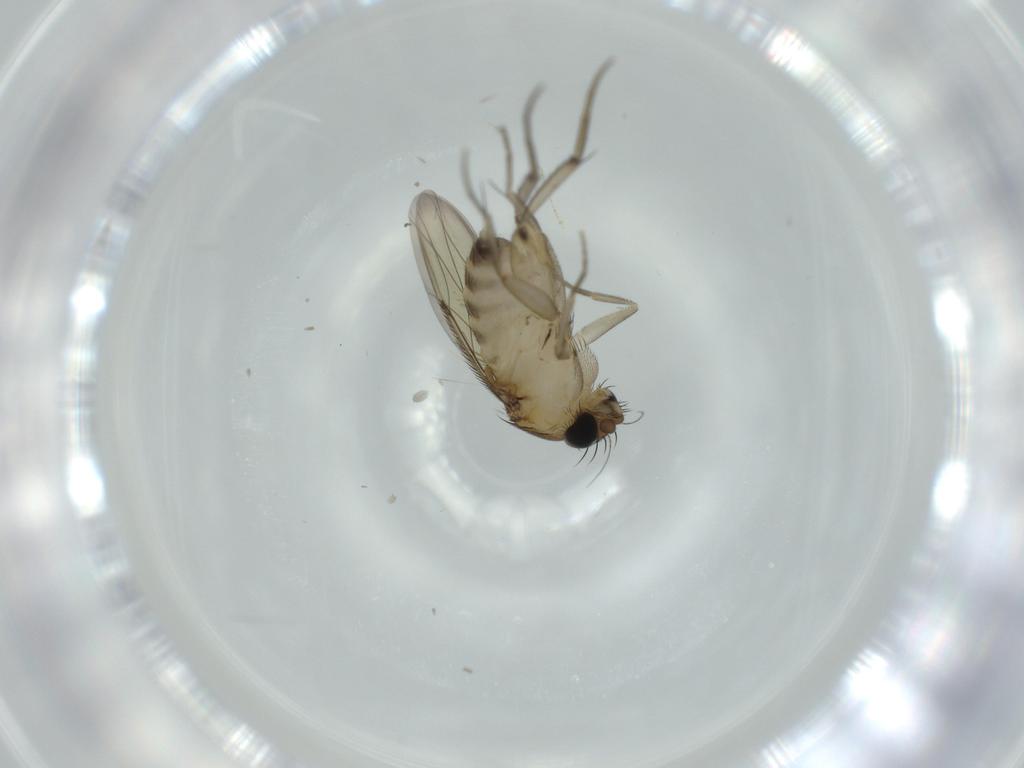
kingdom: Animalia
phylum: Arthropoda
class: Insecta
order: Diptera
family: Phoridae
